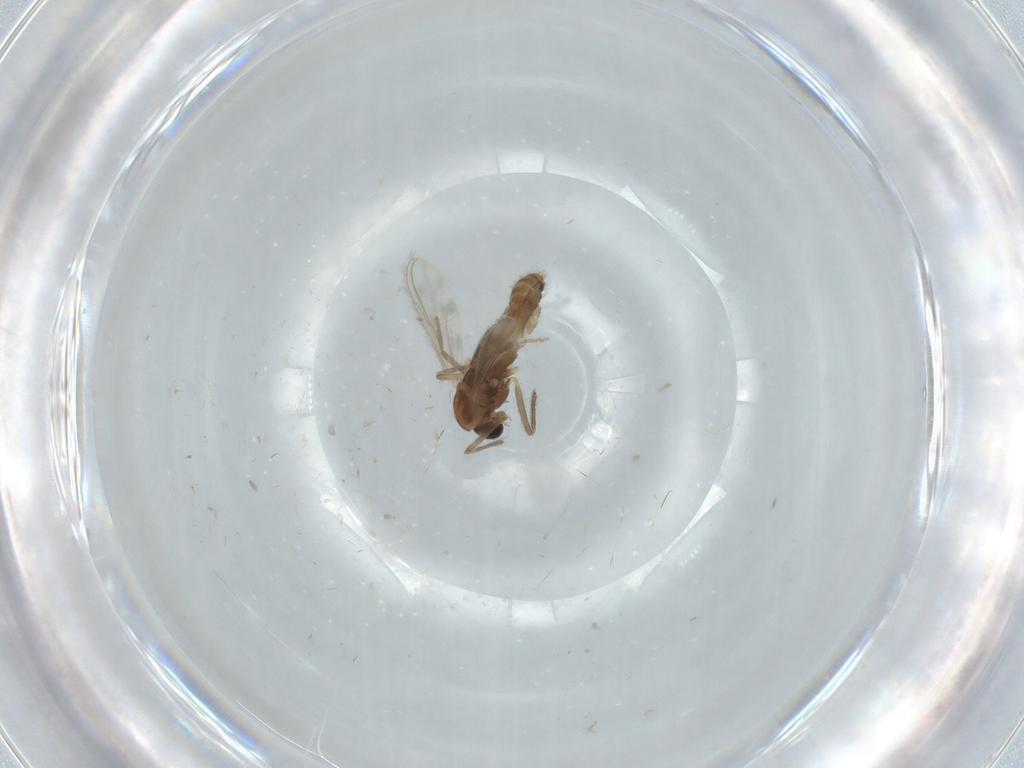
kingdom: Animalia
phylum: Arthropoda
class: Insecta
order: Diptera
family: Chironomidae
